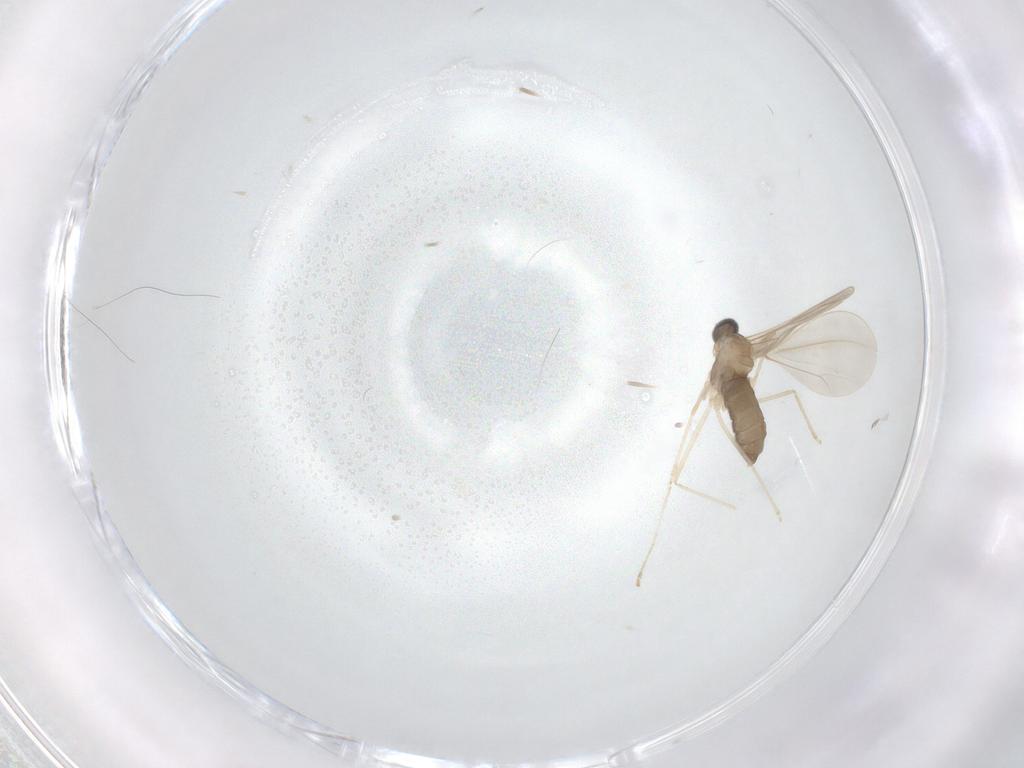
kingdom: Animalia
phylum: Arthropoda
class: Insecta
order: Diptera
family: Cecidomyiidae
